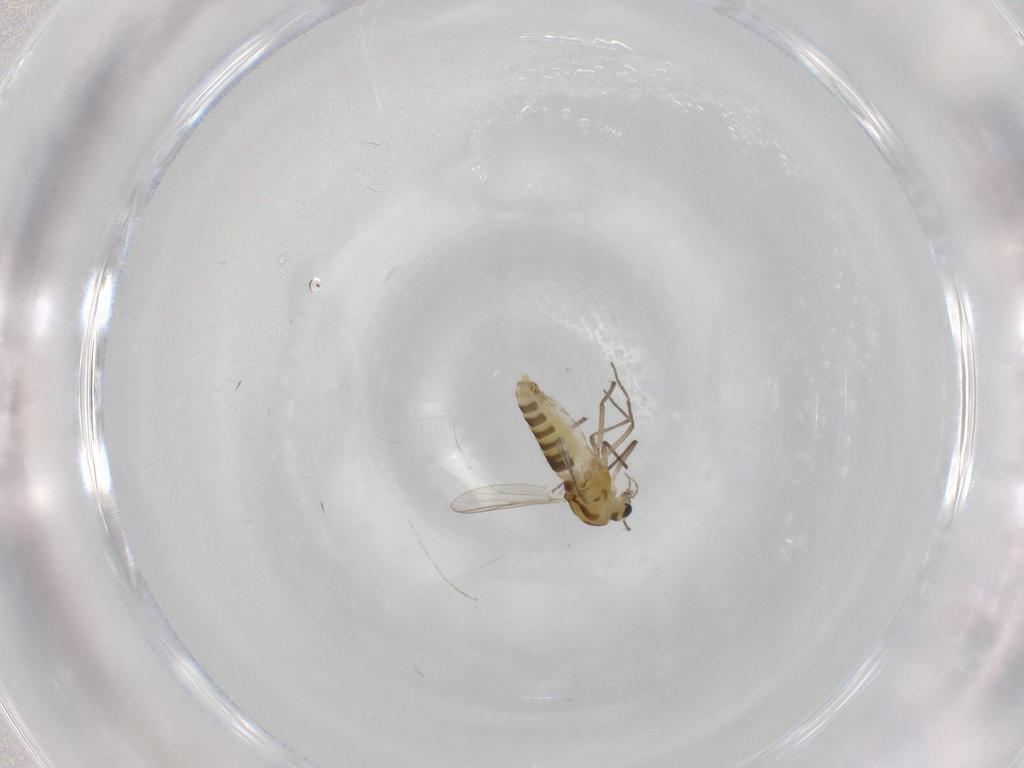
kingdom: Animalia
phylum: Arthropoda
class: Insecta
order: Diptera
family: Chironomidae
